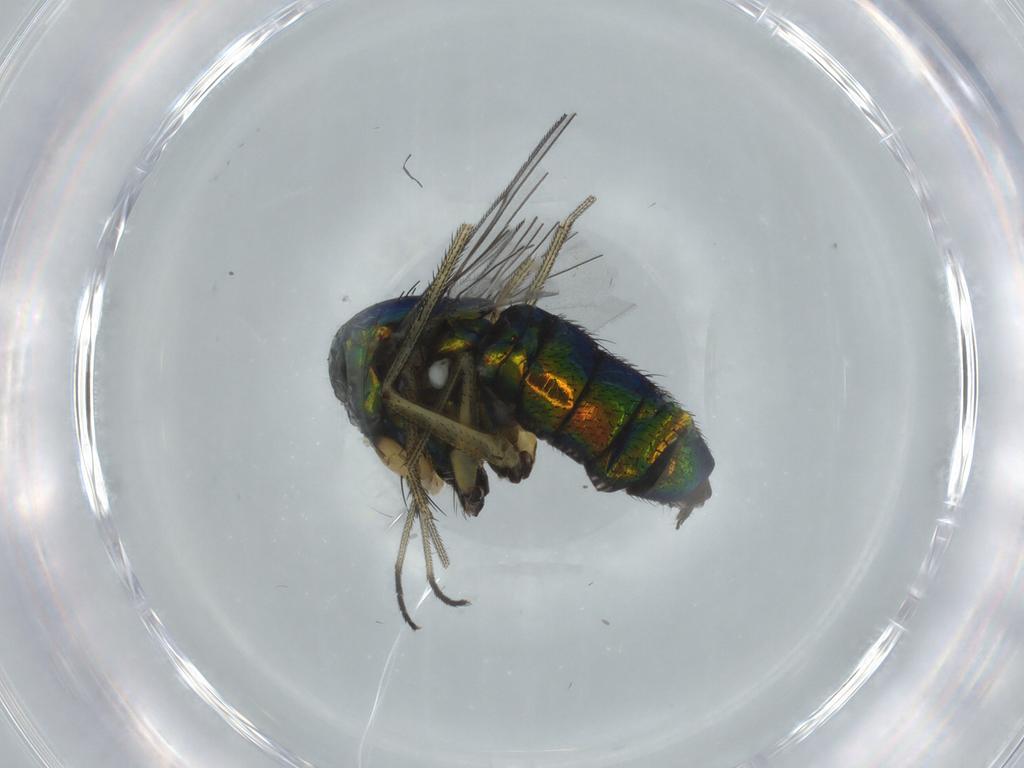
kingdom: Animalia
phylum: Arthropoda
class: Insecta
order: Diptera
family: Dolichopodidae
